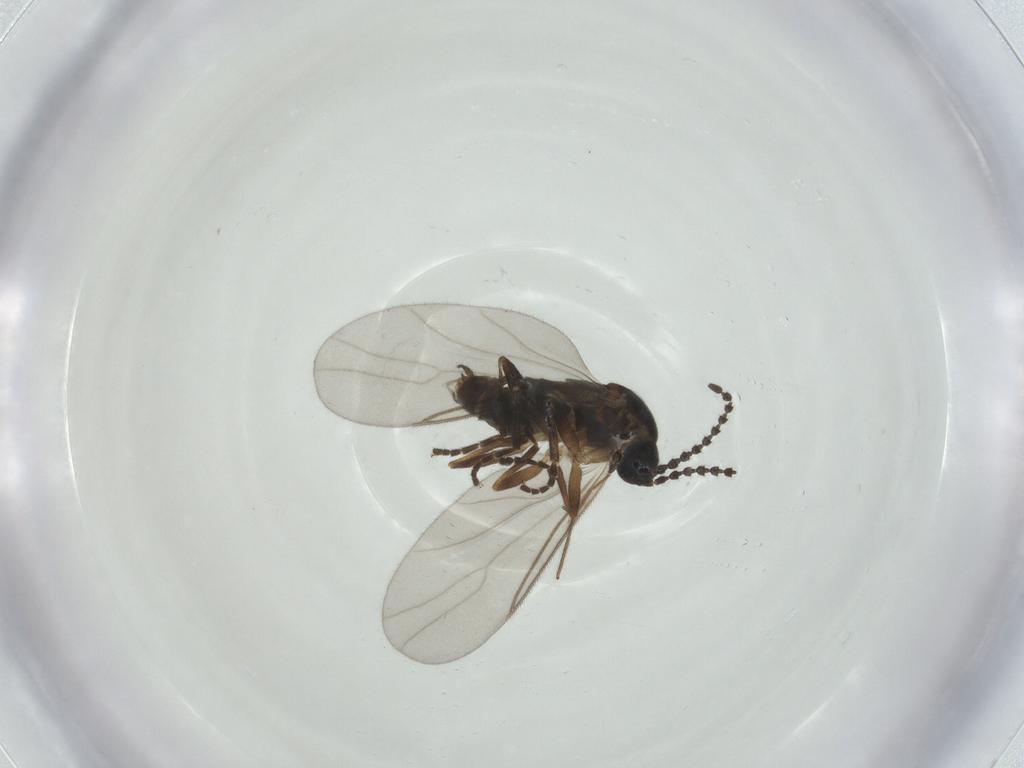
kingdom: Animalia
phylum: Arthropoda
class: Insecta
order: Diptera
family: Scatopsidae
